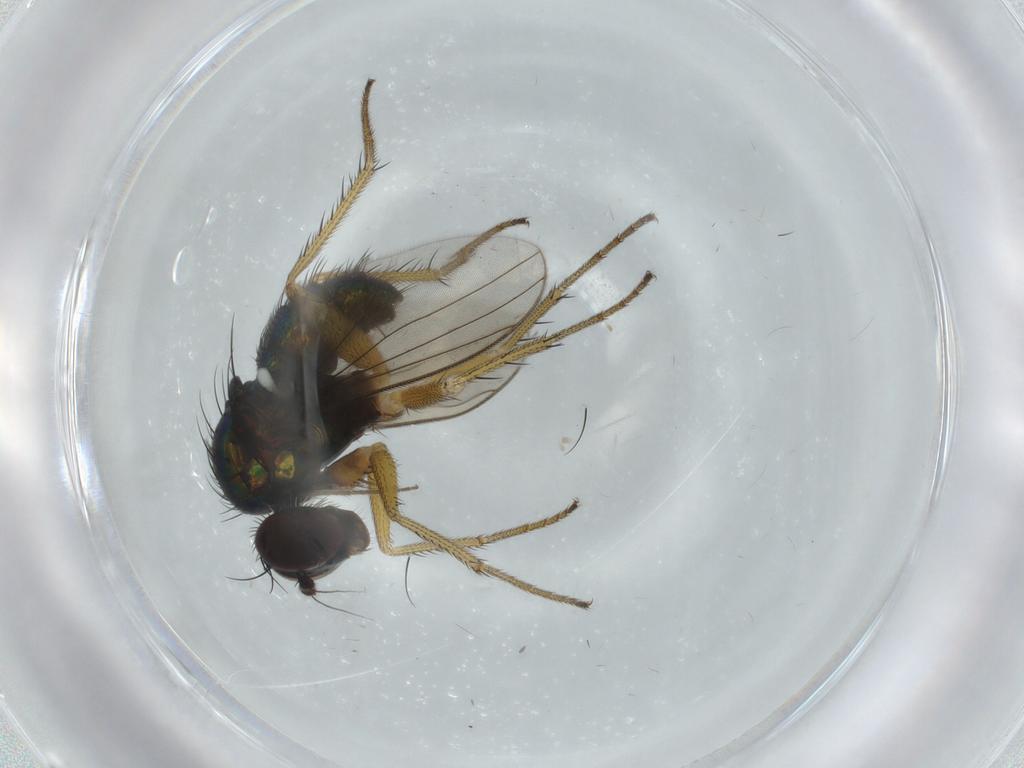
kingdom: Animalia
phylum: Arthropoda
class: Insecta
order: Diptera
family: Dolichopodidae
